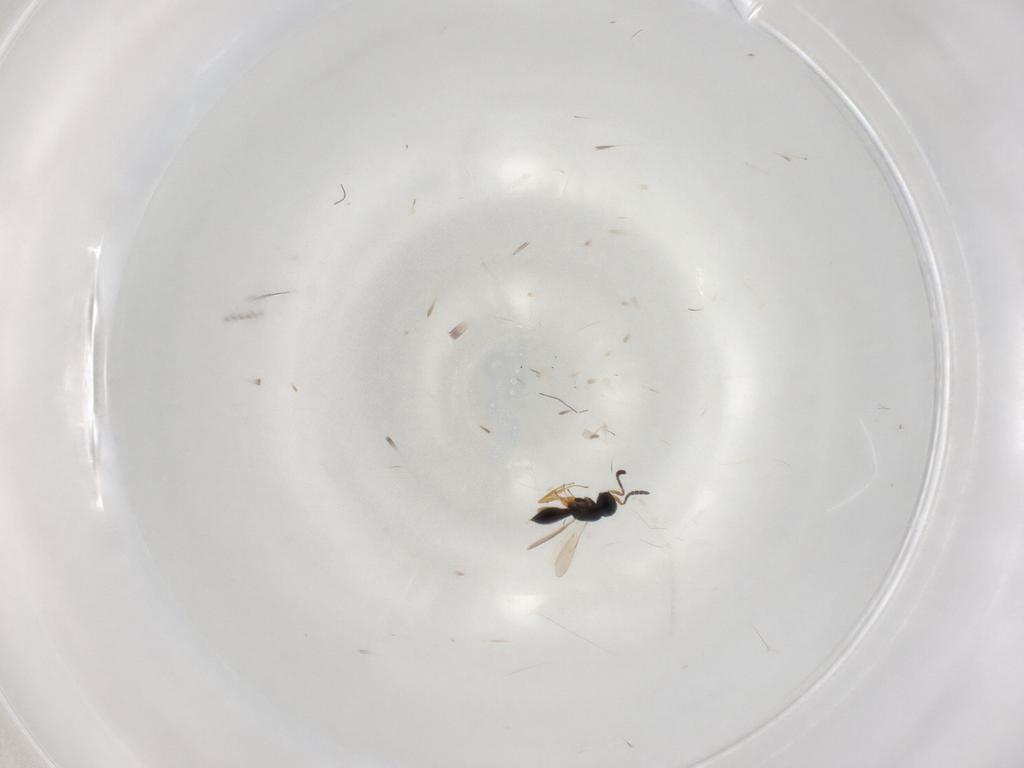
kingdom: Animalia
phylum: Arthropoda
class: Insecta
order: Hymenoptera
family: Scelionidae
